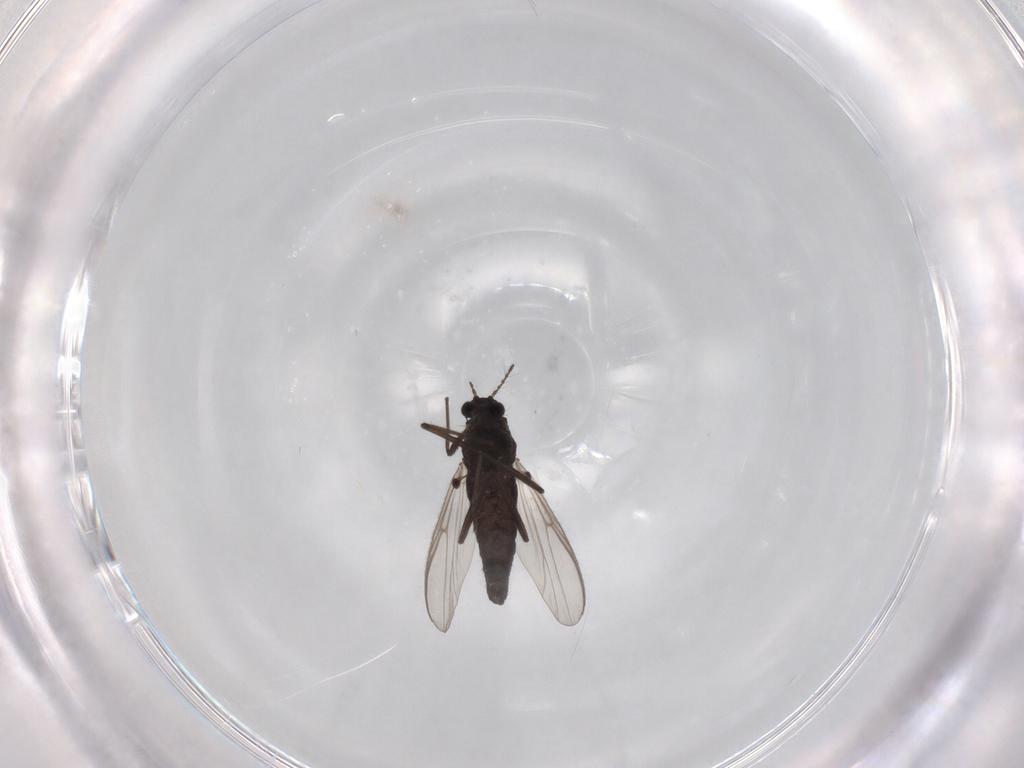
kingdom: Animalia
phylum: Arthropoda
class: Insecta
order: Diptera
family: Chironomidae
